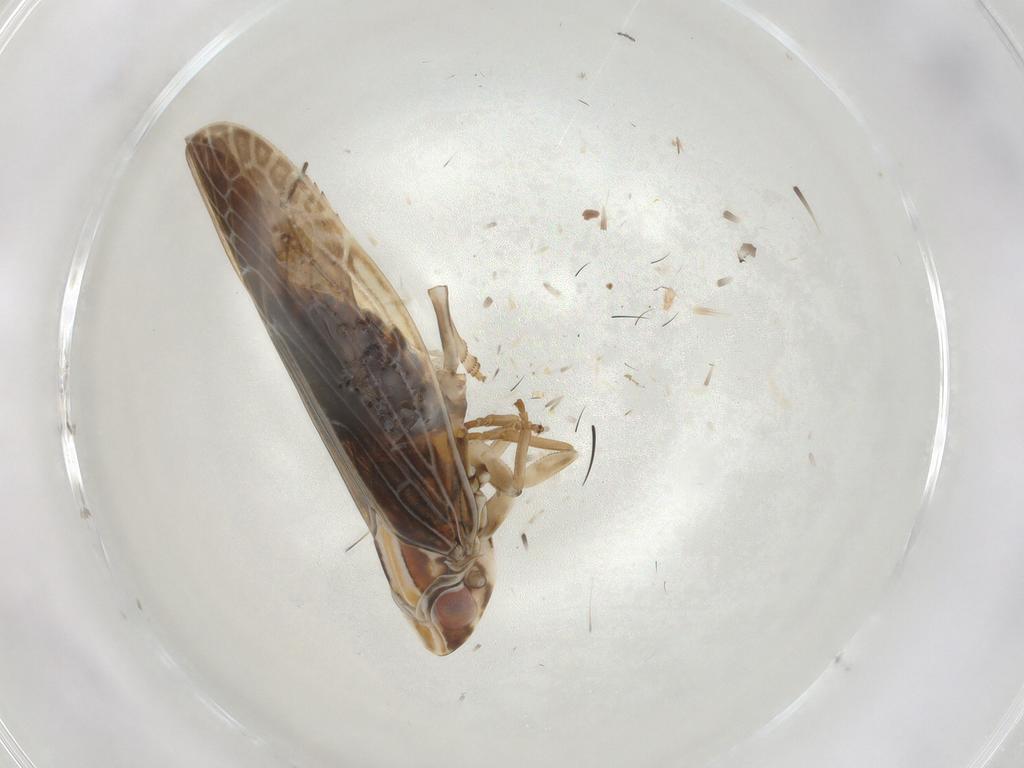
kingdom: Animalia
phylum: Arthropoda
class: Insecta
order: Hemiptera
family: Achilidae
